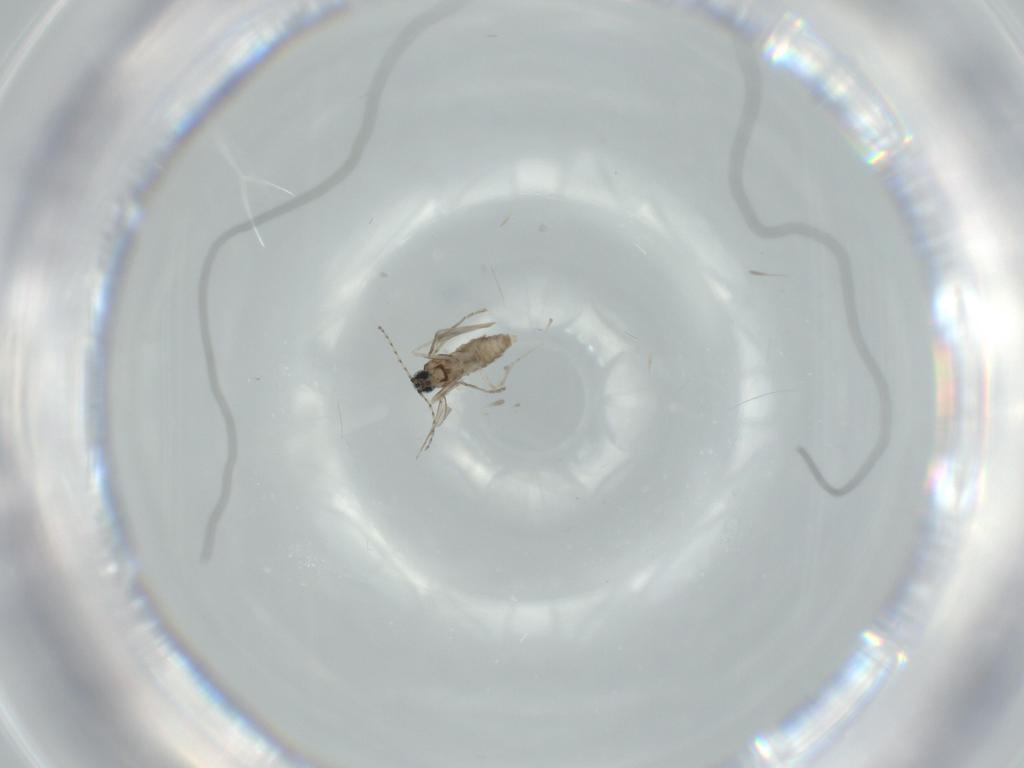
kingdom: Animalia
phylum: Arthropoda
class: Insecta
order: Diptera
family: Cecidomyiidae
